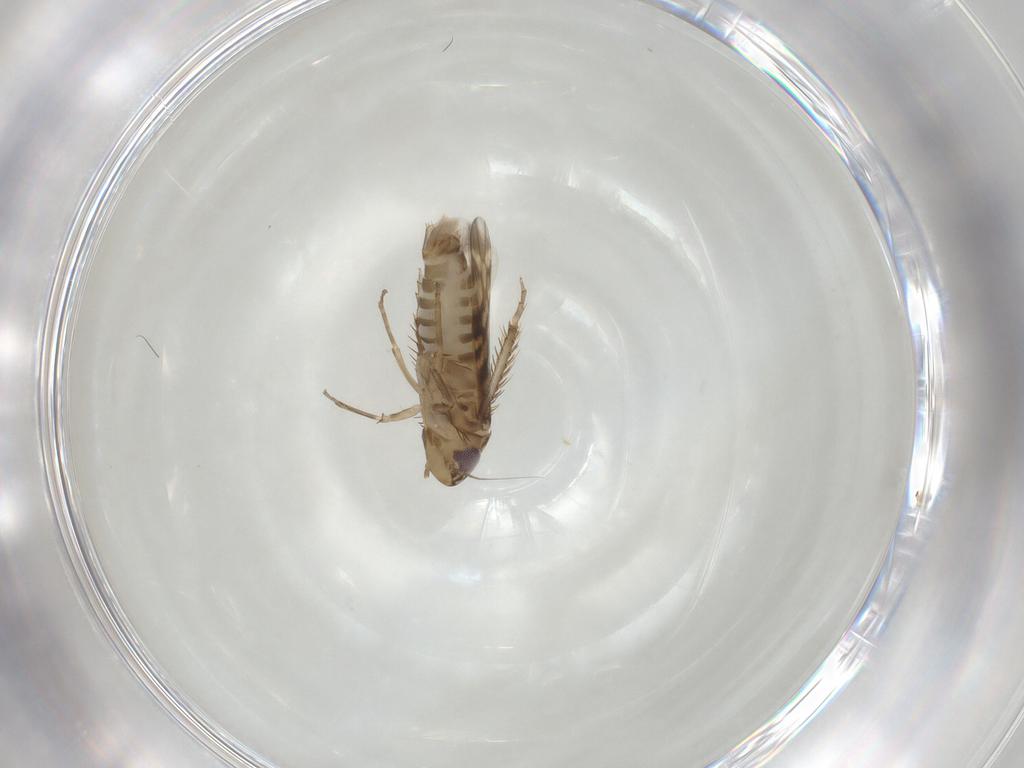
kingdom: Animalia
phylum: Arthropoda
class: Insecta
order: Hemiptera
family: Cicadellidae
